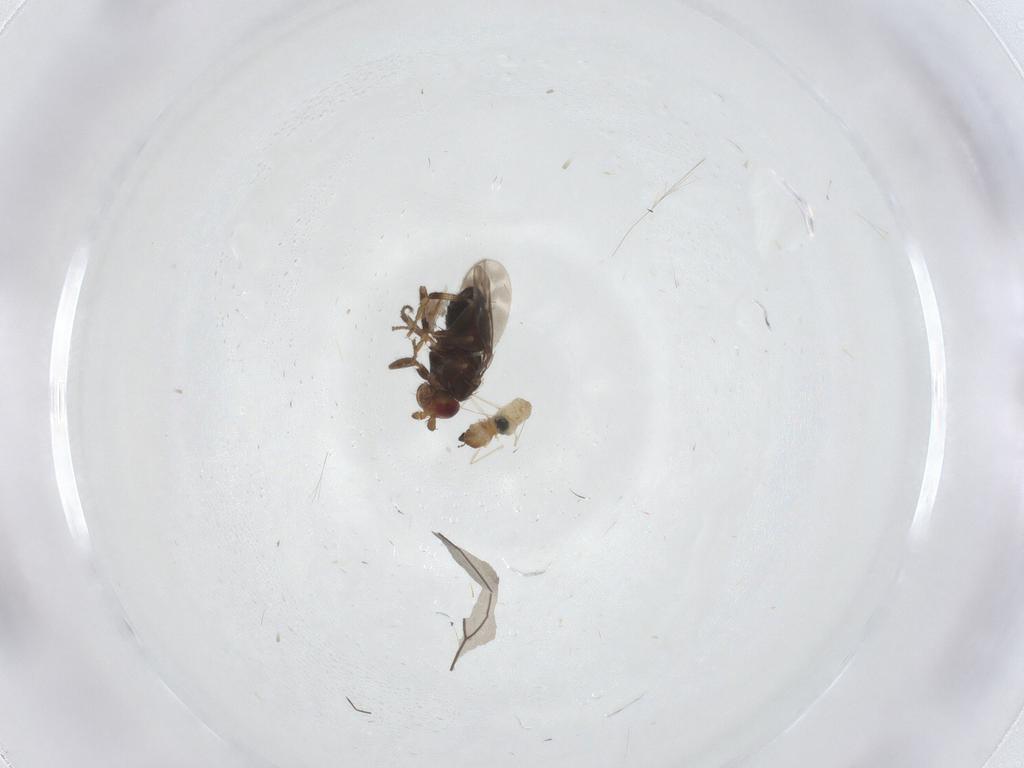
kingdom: Animalia
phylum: Arthropoda
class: Insecta
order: Diptera
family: Cecidomyiidae
